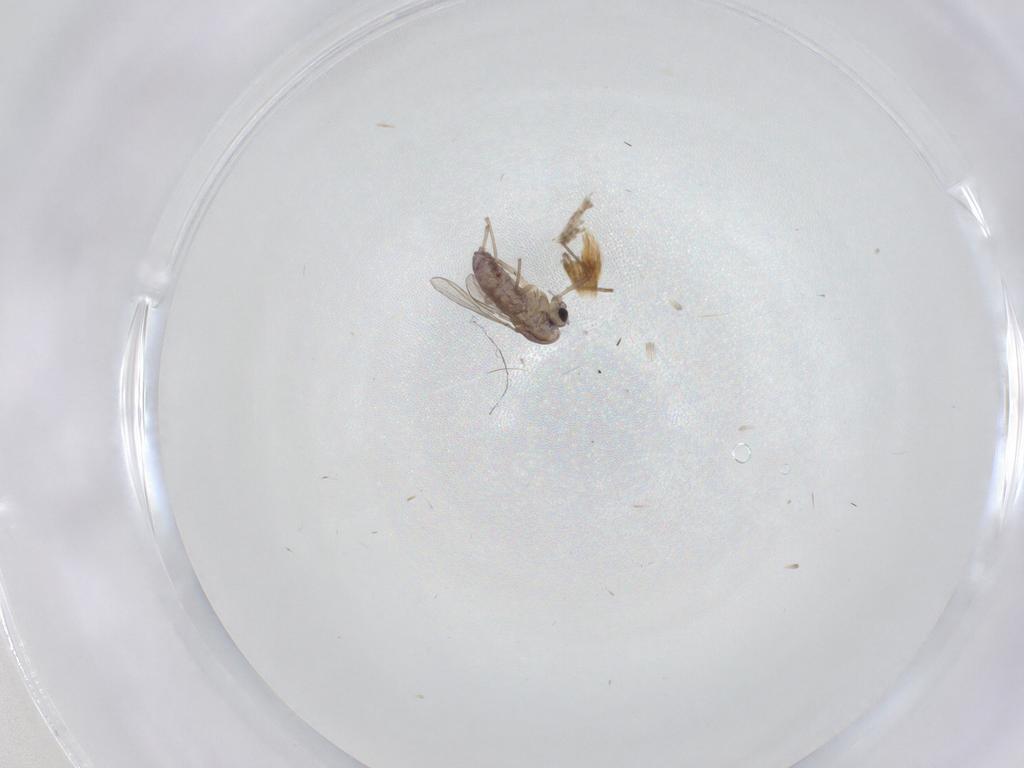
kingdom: Animalia
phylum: Arthropoda
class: Insecta
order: Diptera
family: Chironomidae
